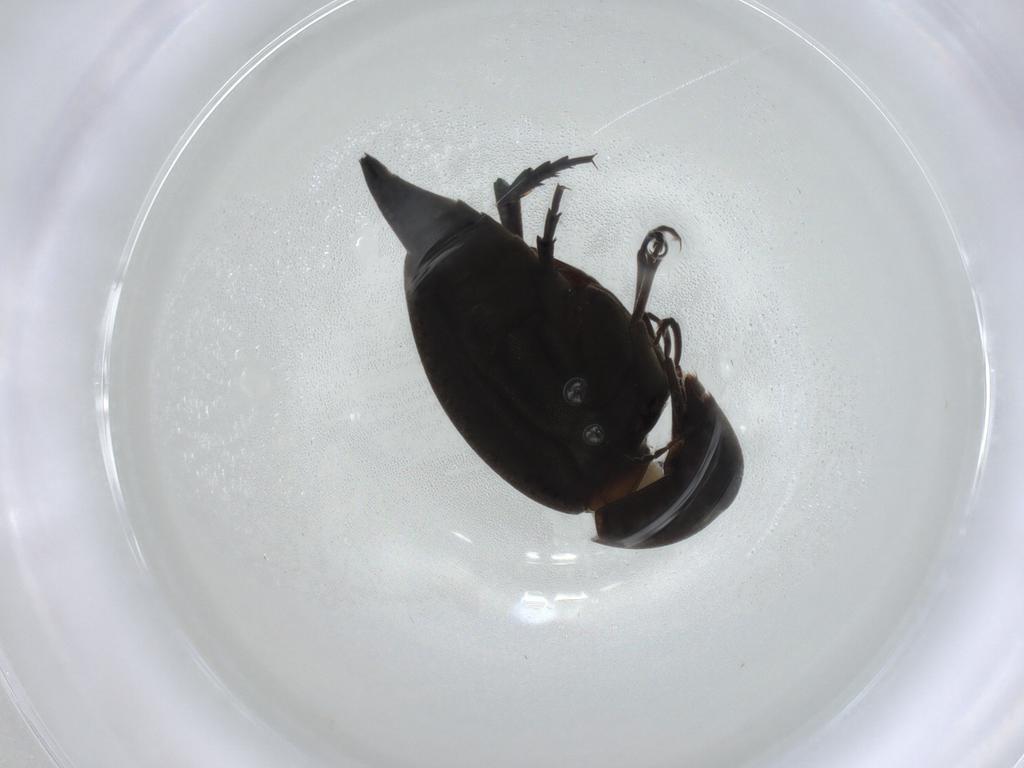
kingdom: Animalia
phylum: Arthropoda
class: Insecta
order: Coleoptera
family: Mordellidae
